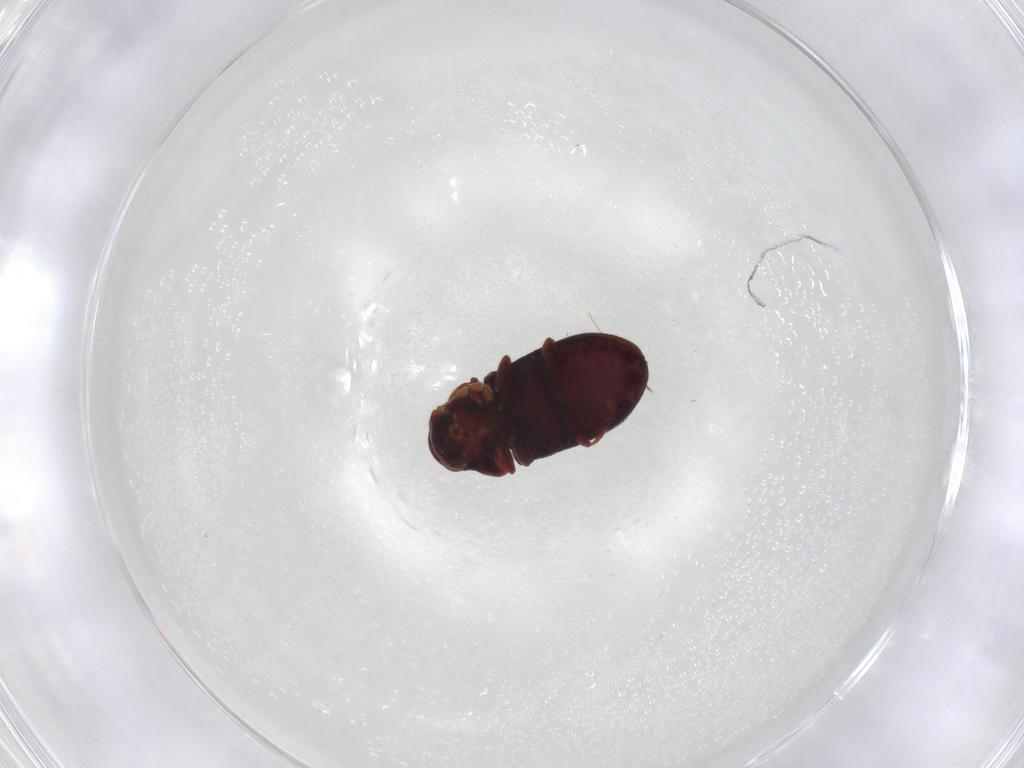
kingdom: Animalia
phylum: Arthropoda
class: Insecta
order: Coleoptera
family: Ptinidae
